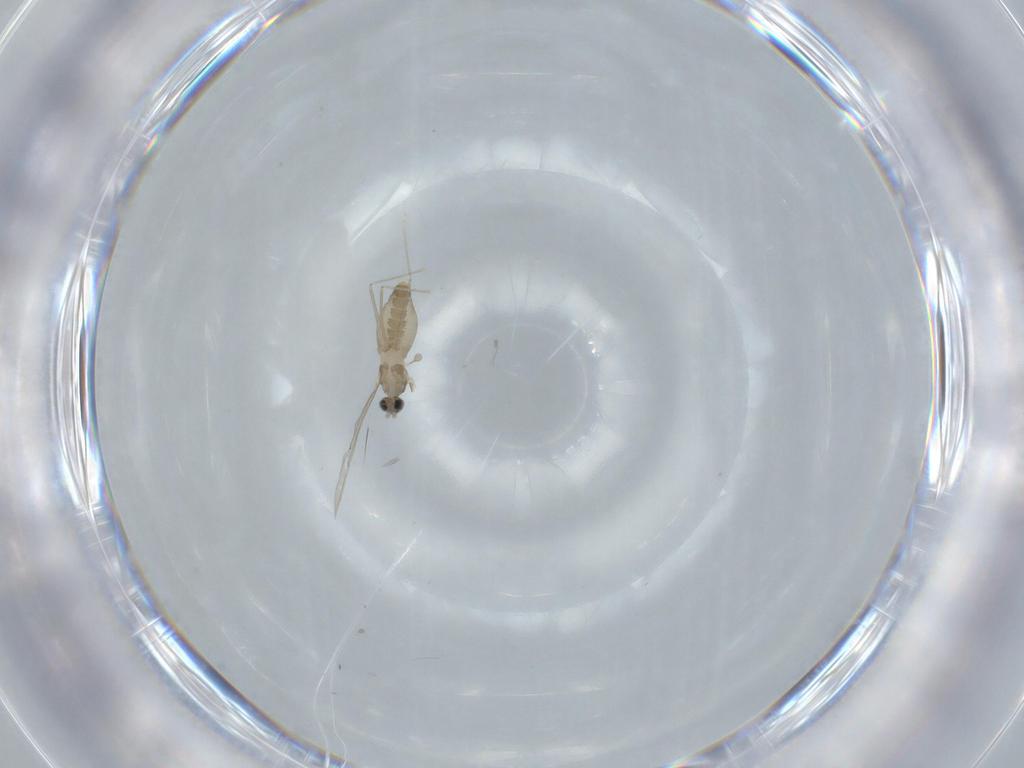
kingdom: Animalia
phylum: Arthropoda
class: Insecta
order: Diptera
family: Cecidomyiidae
